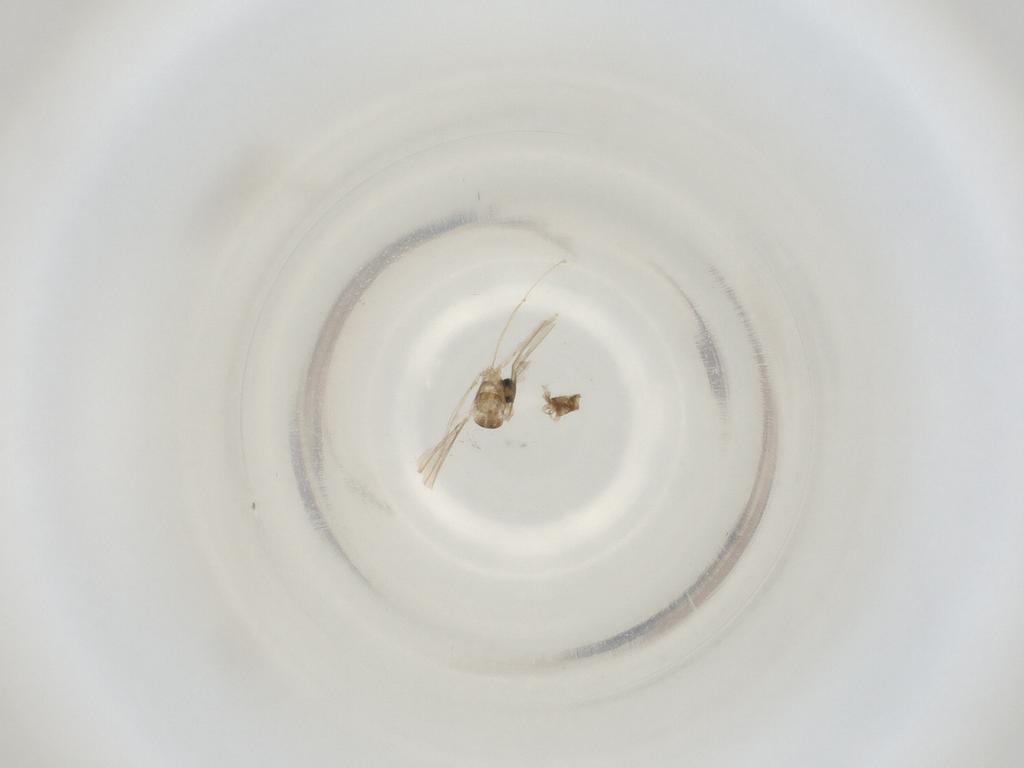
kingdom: Animalia
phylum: Arthropoda
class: Insecta
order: Diptera
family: Cecidomyiidae
